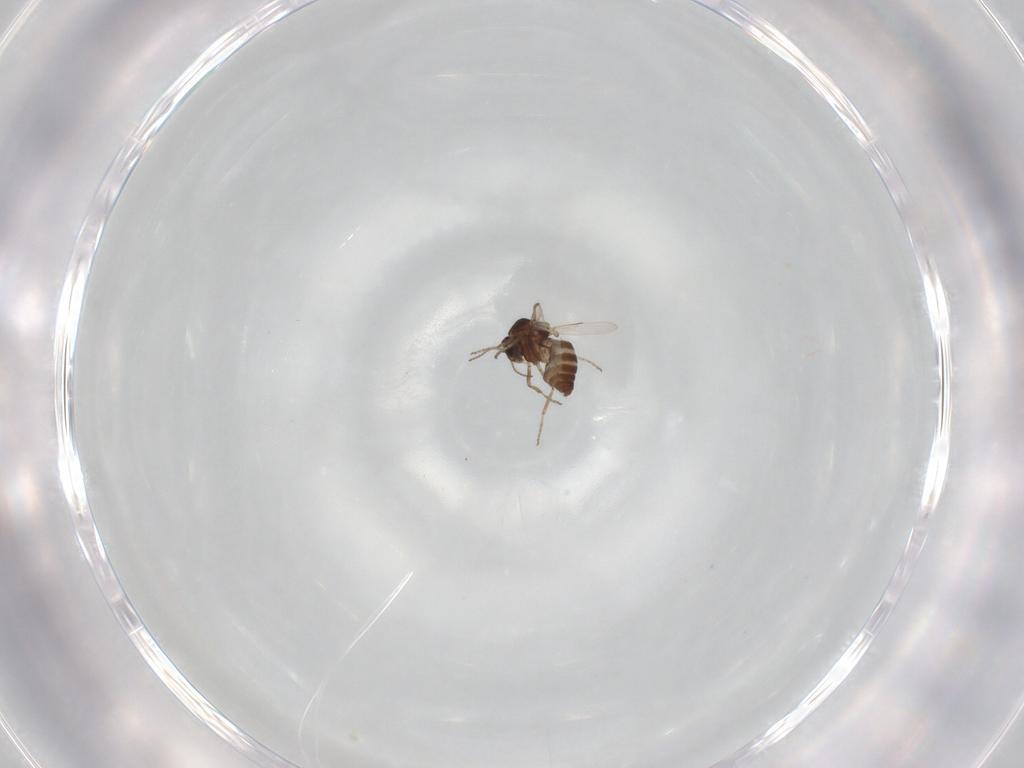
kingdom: Animalia
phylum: Arthropoda
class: Insecta
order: Diptera
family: Ceratopogonidae
